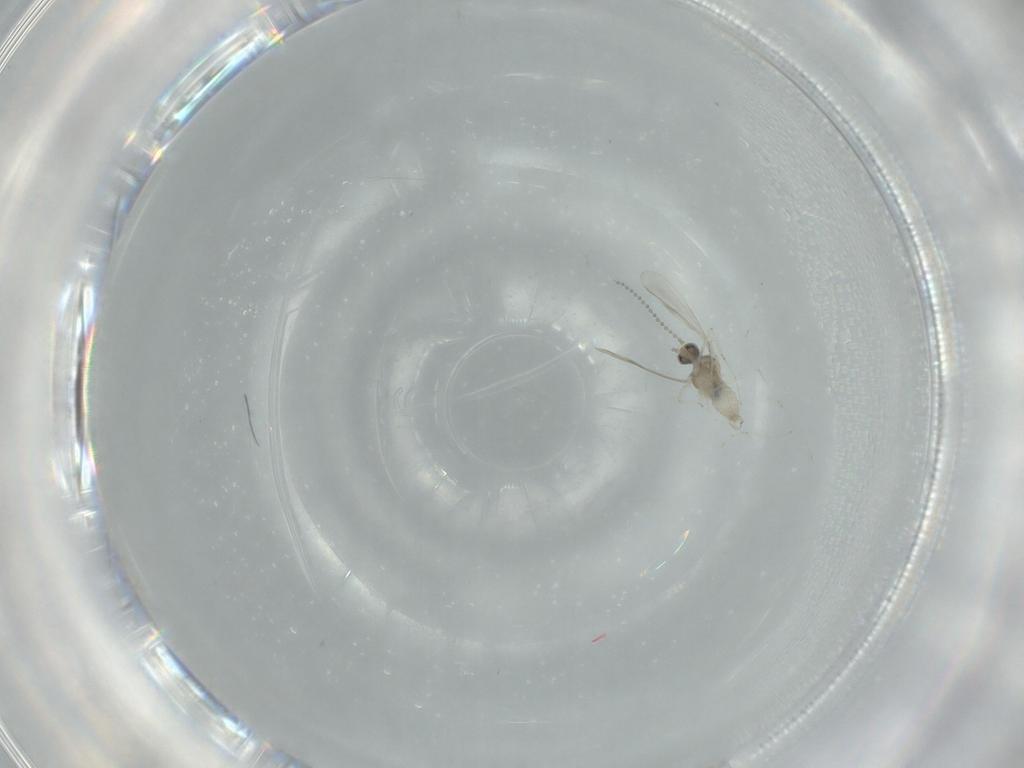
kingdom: Animalia
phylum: Arthropoda
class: Insecta
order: Diptera
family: Cecidomyiidae
